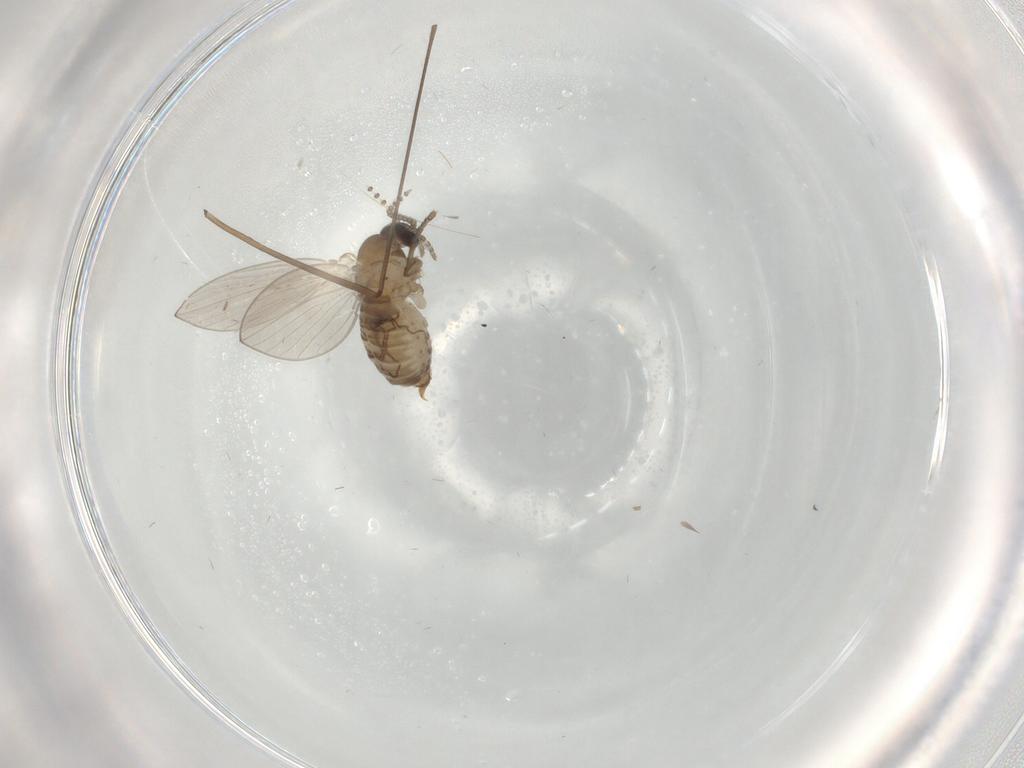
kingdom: Animalia
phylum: Arthropoda
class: Insecta
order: Diptera
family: Limoniidae
